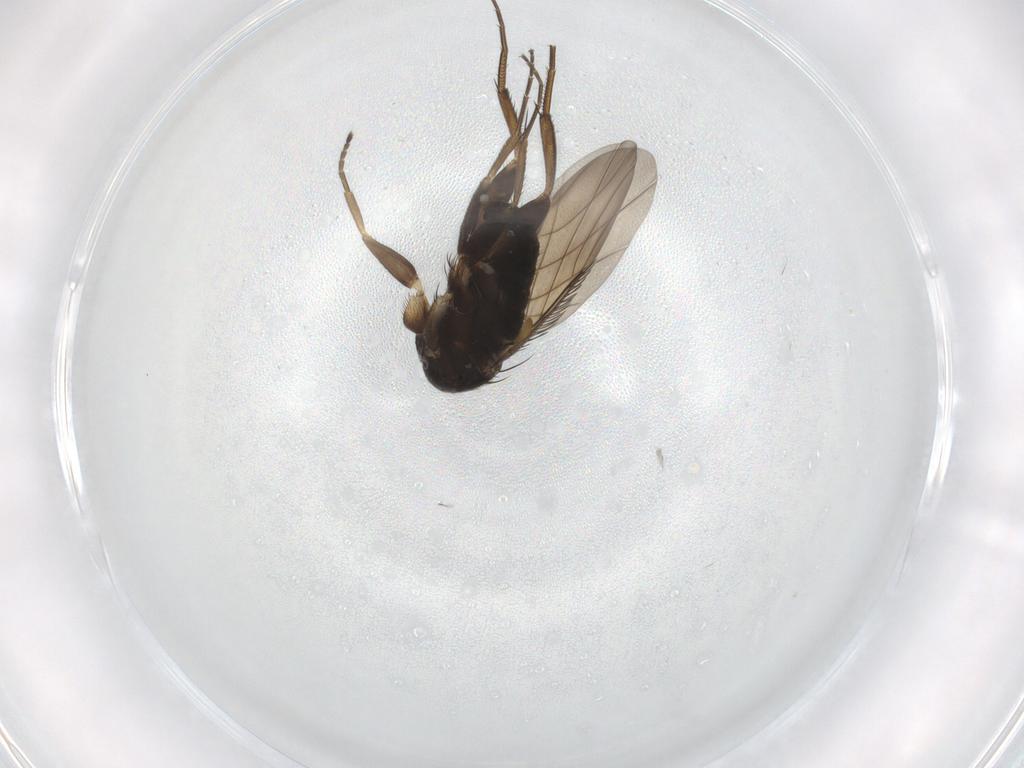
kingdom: Animalia
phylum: Arthropoda
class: Insecta
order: Diptera
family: Phoridae
